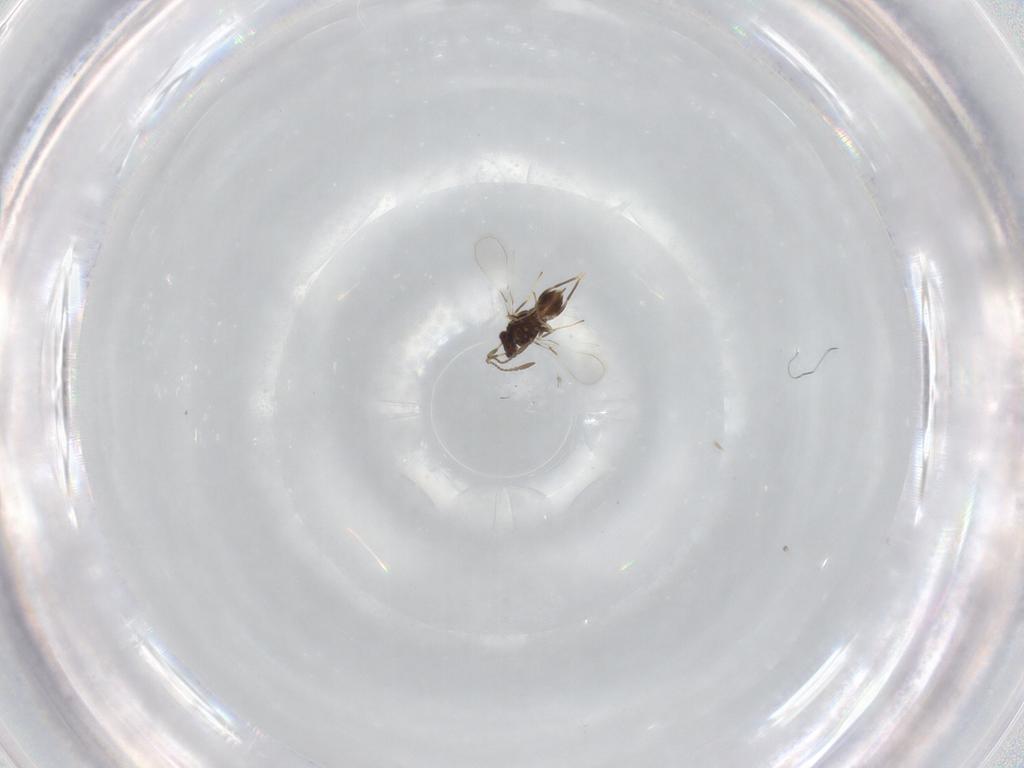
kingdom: Animalia
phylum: Arthropoda
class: Insecta
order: Hymenoptera
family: Mymaridae
